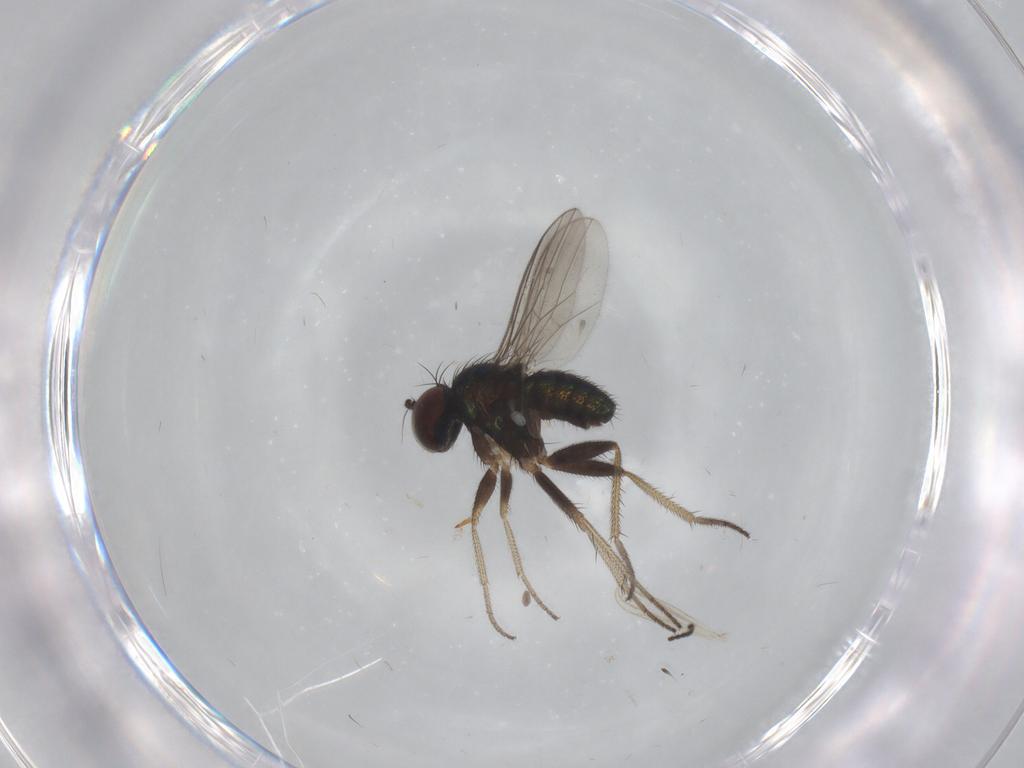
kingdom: Animalia
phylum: Arthropoda
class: Insecta
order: Diptera
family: Chironomidae
